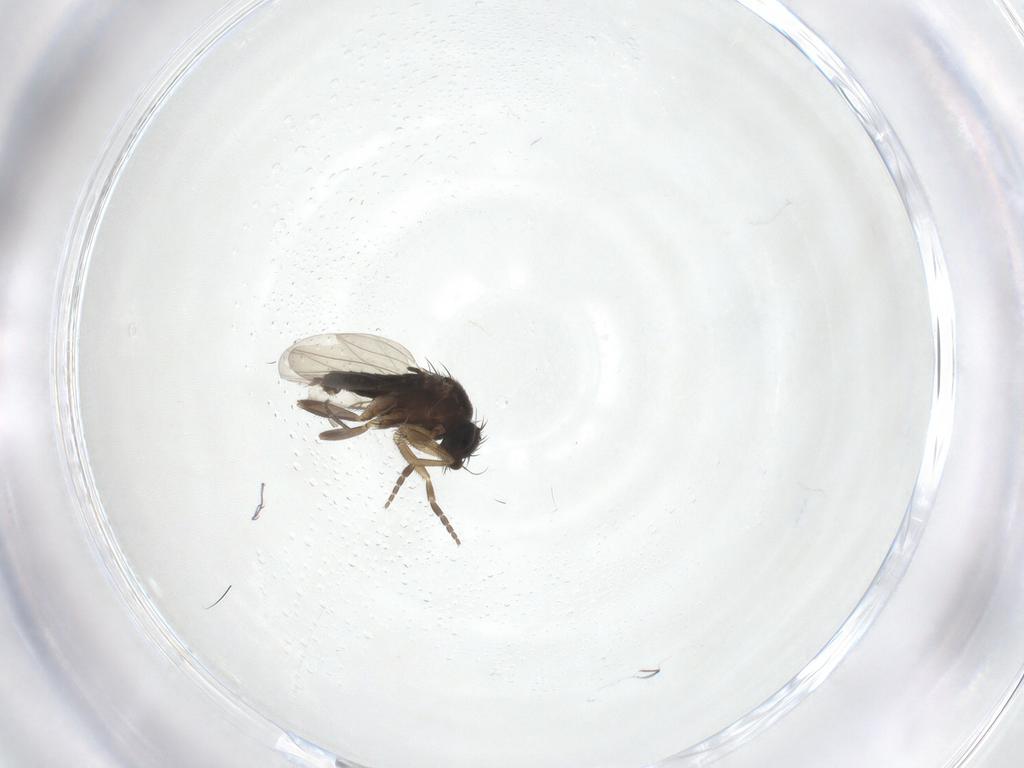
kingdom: Animalia
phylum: Arthropoda
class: Insecta
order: Diptera
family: Phoridae
